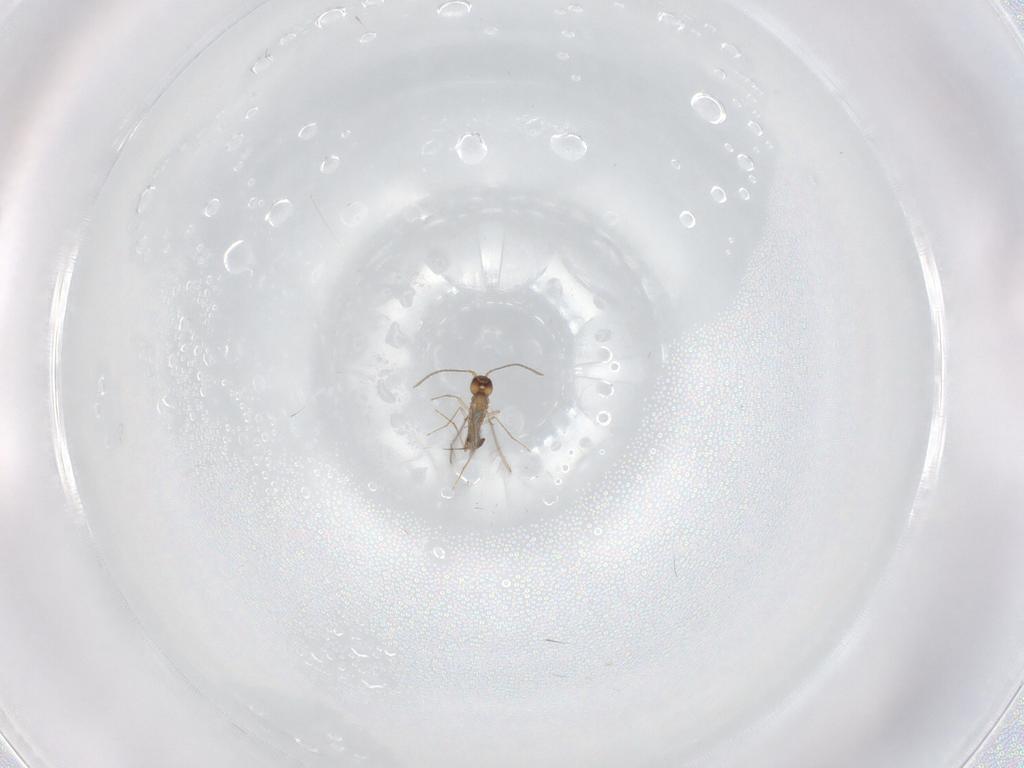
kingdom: Animalia
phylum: Arthropoda
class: Insecta
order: Hymenoptera
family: Mymaridae
